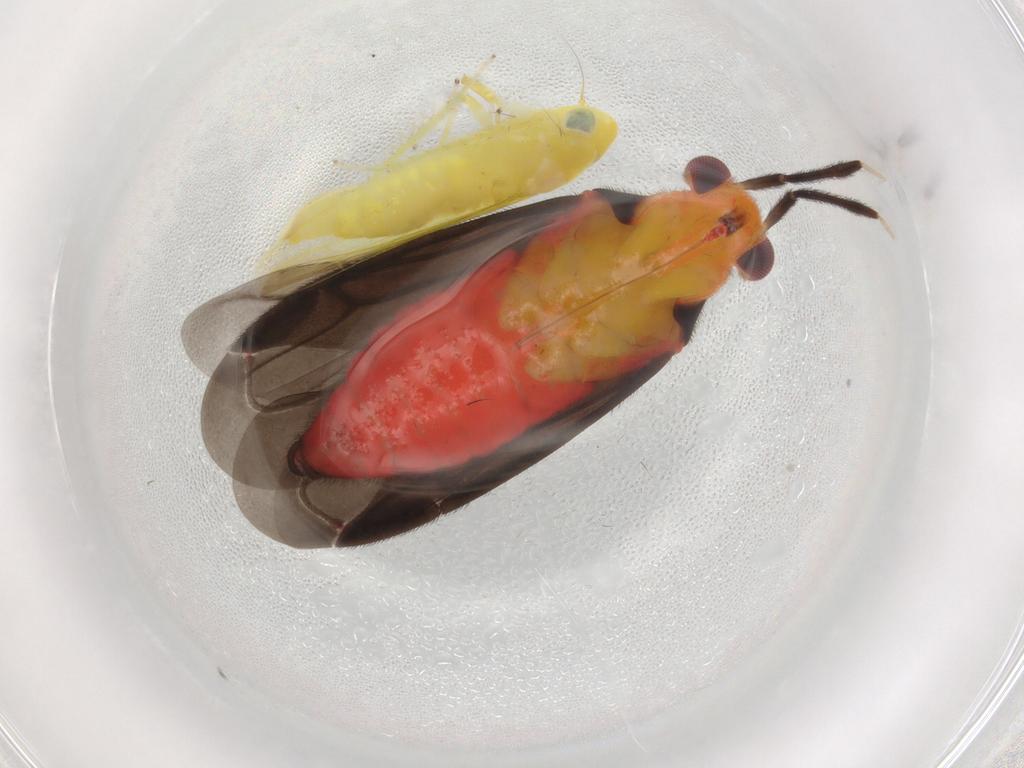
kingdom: Animalia
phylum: Arthropoda
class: Insecta
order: Hemiptera
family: Miridae
